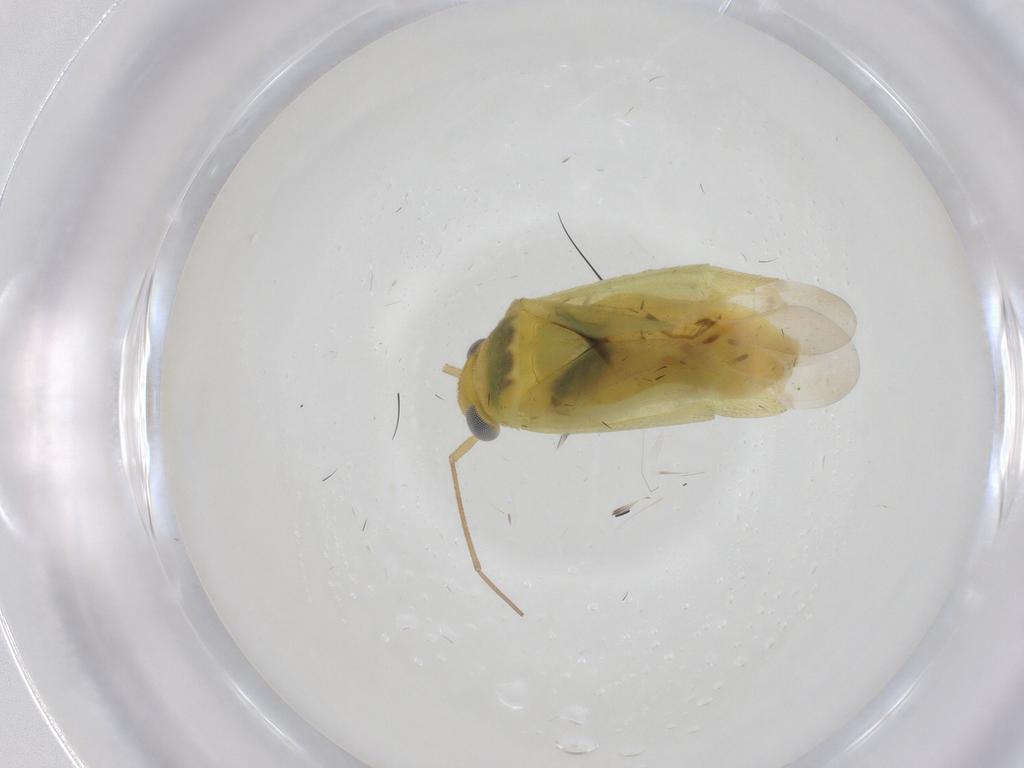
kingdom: Animalia
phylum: Arthropoda
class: Insecta
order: Hemiptera
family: Miridae
